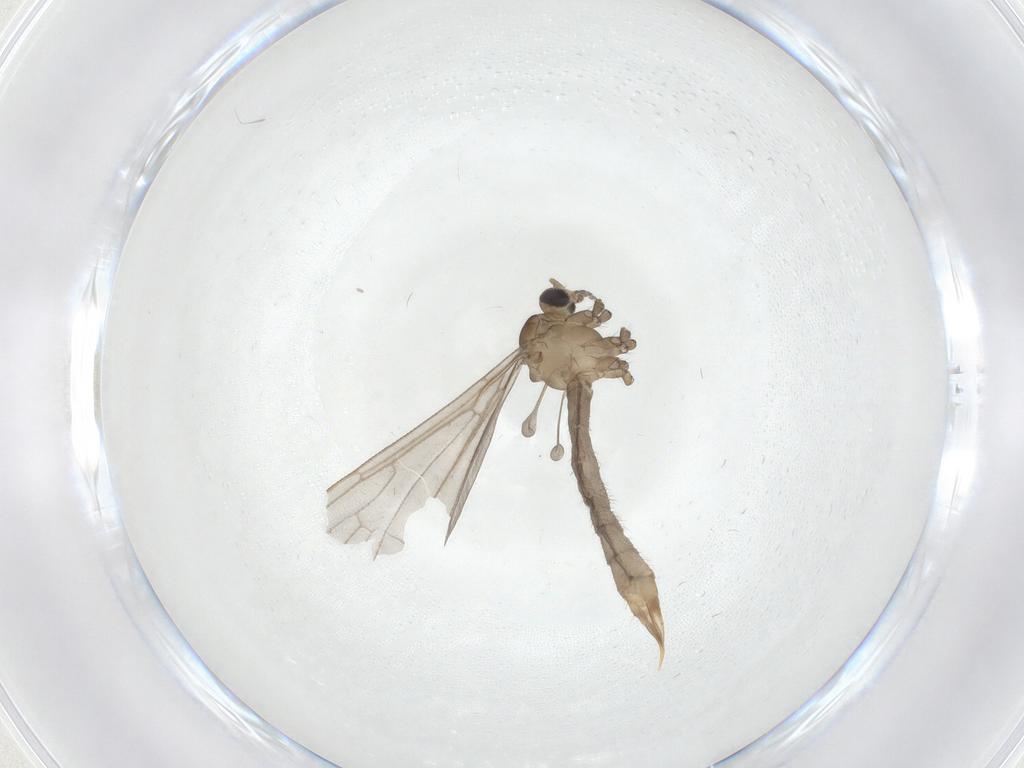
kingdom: Animalia
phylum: Arthropoda
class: Insecta
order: Diptera
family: Limoniidae
